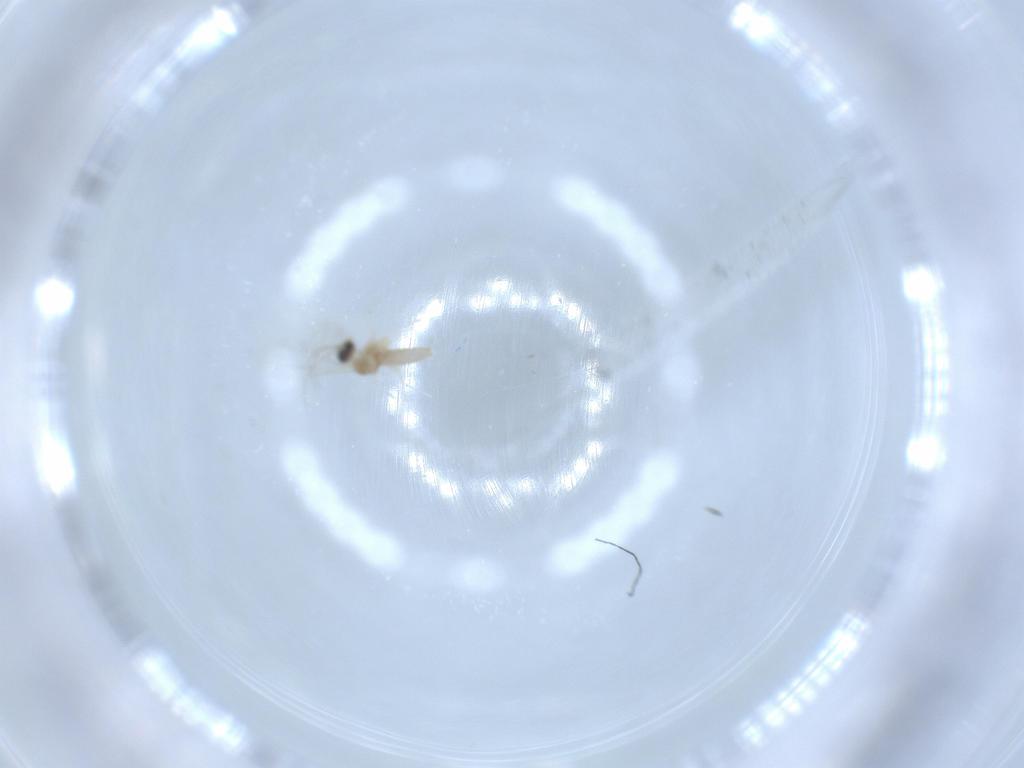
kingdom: Animalia
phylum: Arthropoda
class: Insecta
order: Diptera
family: Cecidomyiidae
